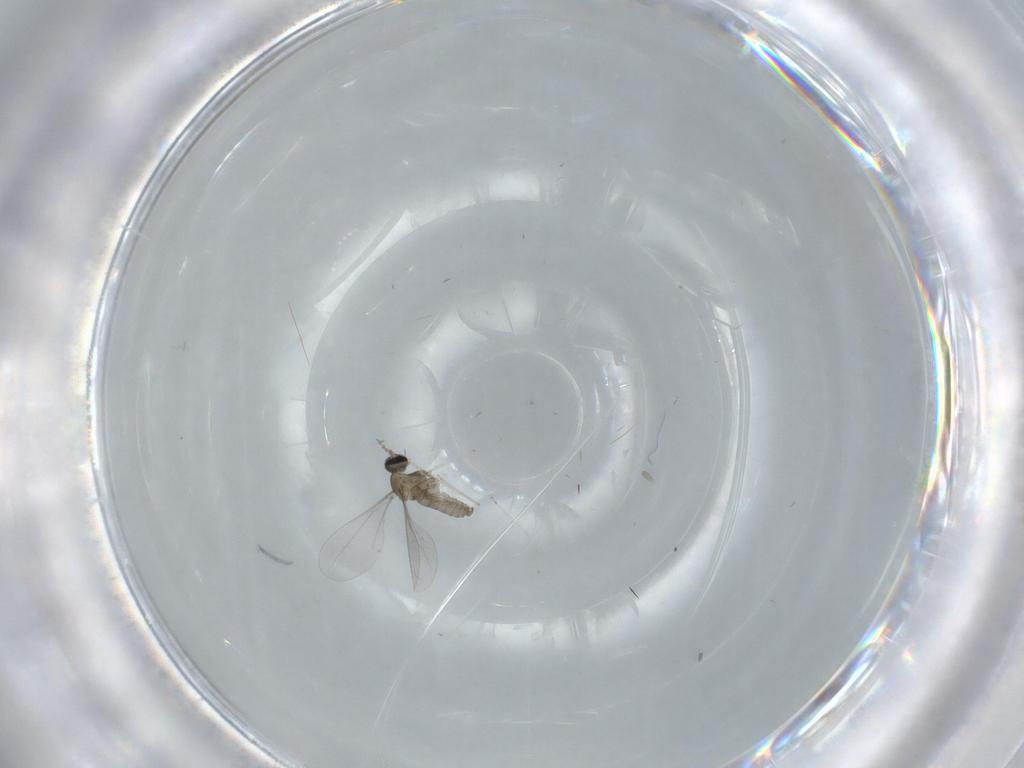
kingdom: Animalia
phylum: Arthropoda
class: Insecta
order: Diptera
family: Cecidomyiidae
